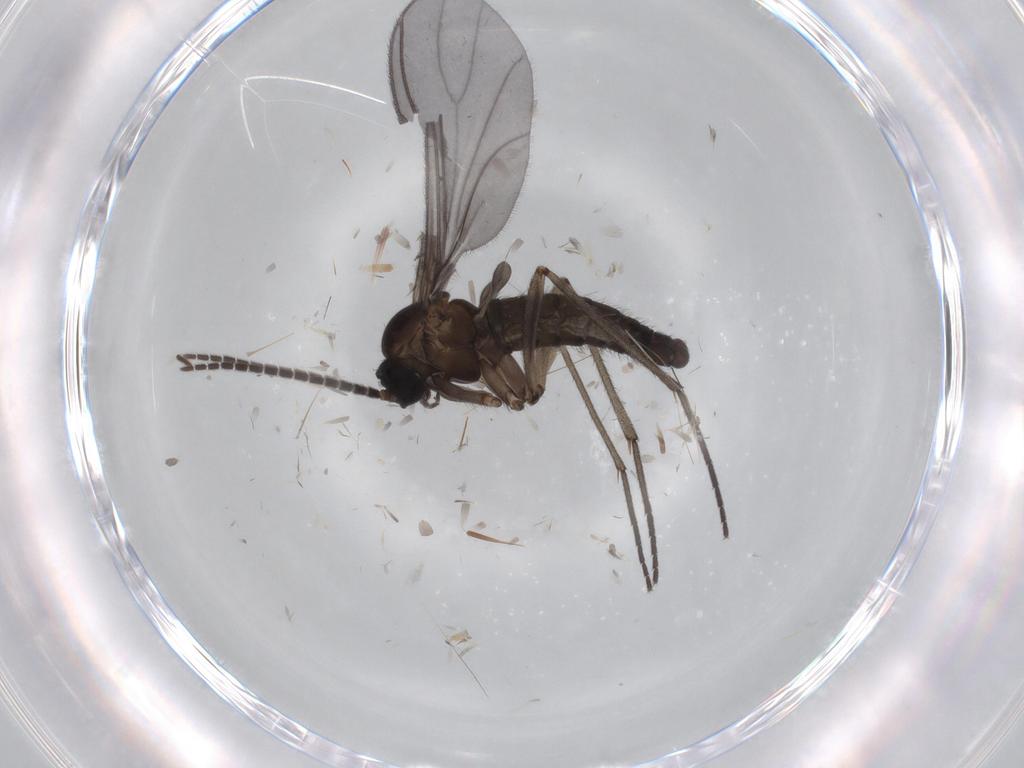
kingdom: Animalia
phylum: Arthropoda
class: Insecta
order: Diptera
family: Sciaridae
